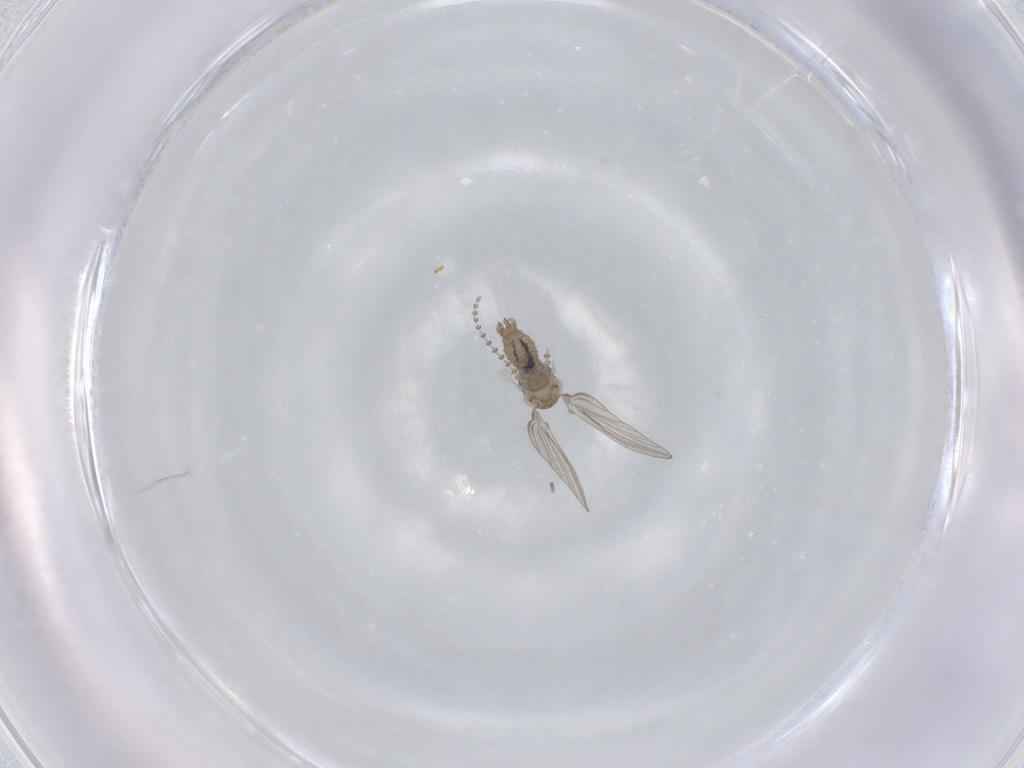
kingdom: Animalia
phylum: Arthropoda
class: Insecta
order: Diptera
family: Psychodidae
